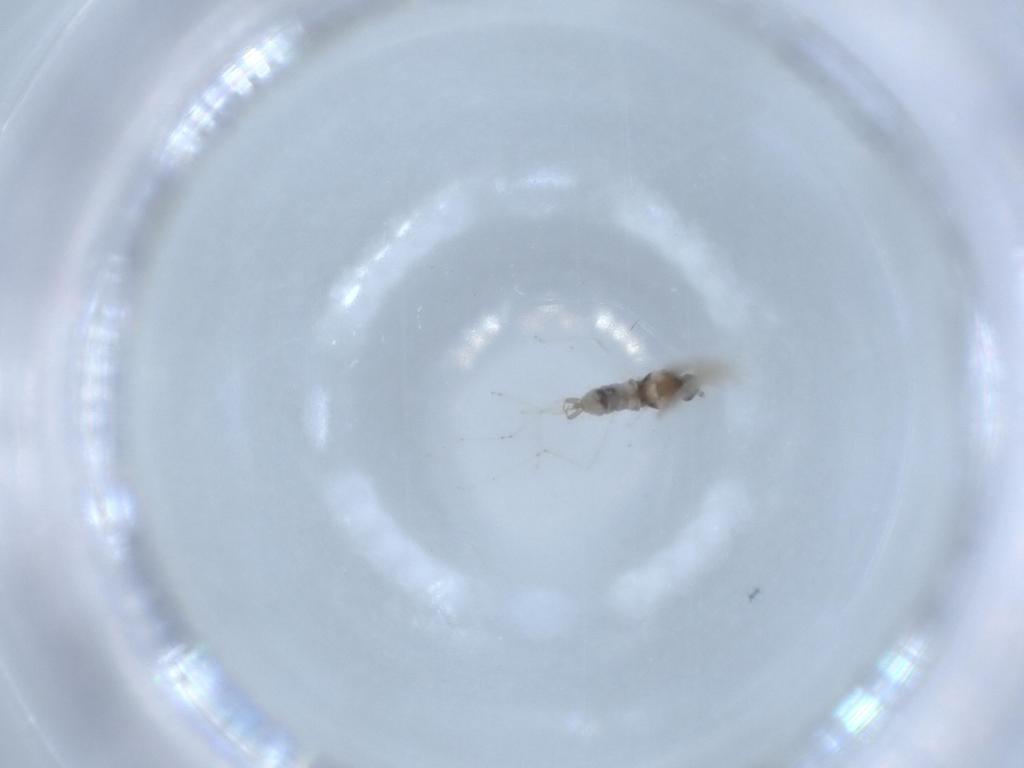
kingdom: Animalia
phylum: Arthropoda
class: Insecta
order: Diptera
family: Cecidomyiidae
